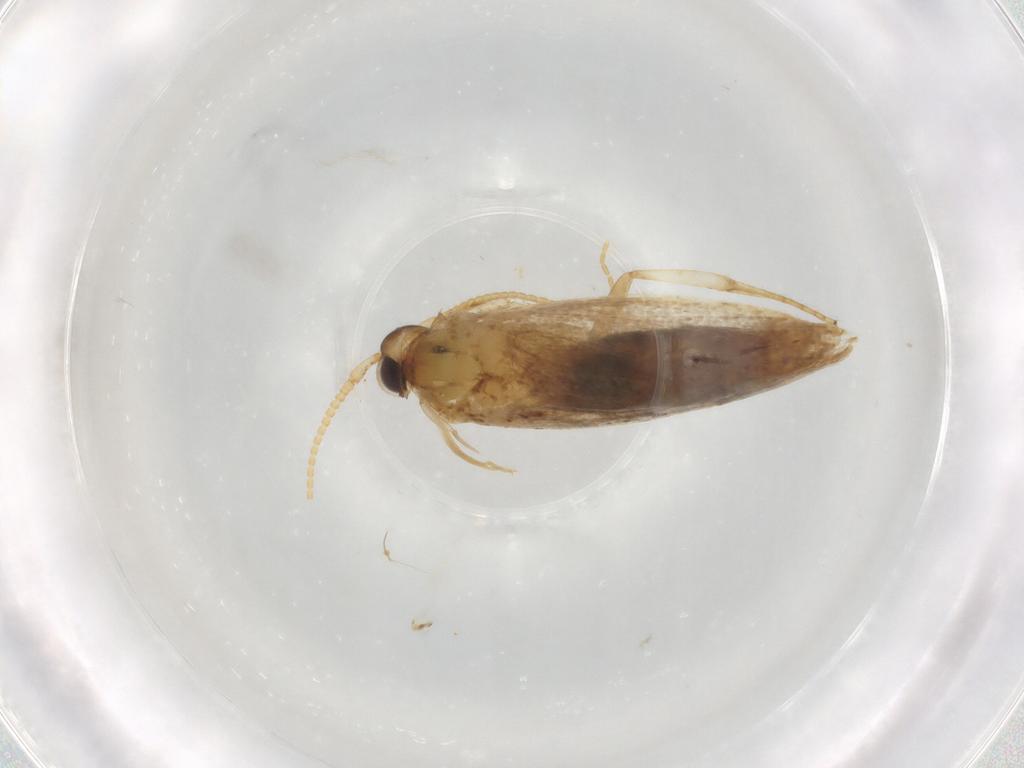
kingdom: Animalia
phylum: Arthropoda
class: Insecta
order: Lepidoptera
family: Lecithoceridae
